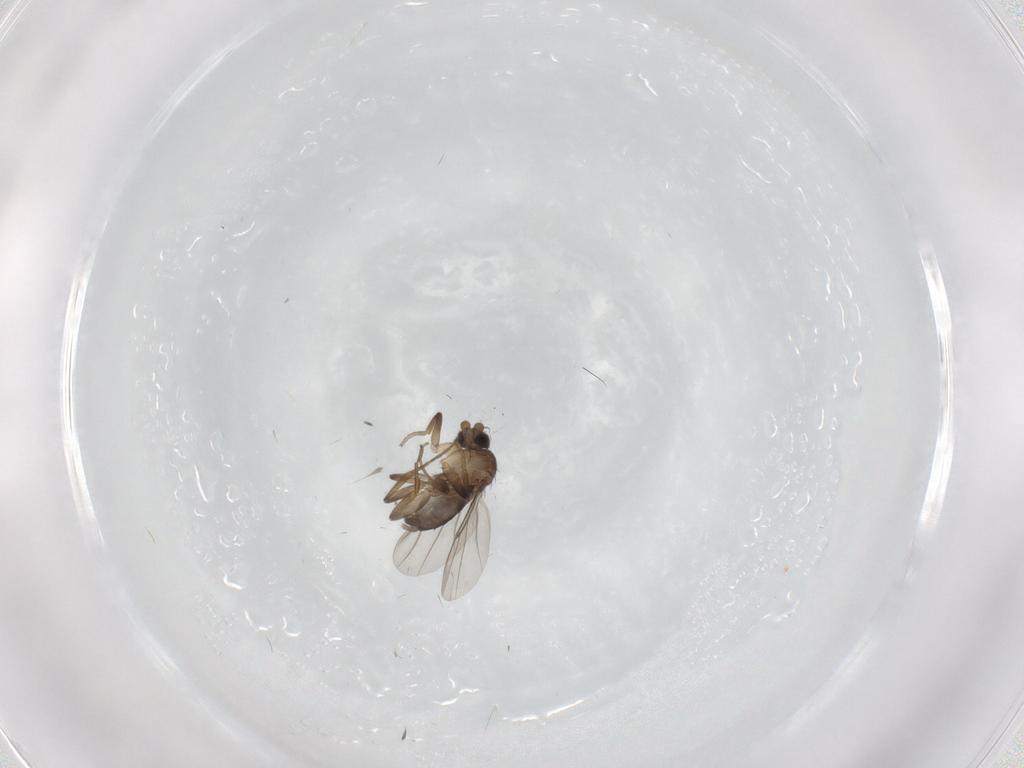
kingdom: Animalia
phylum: Arthropoda
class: Insecta
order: Diptera
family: Phoridae
